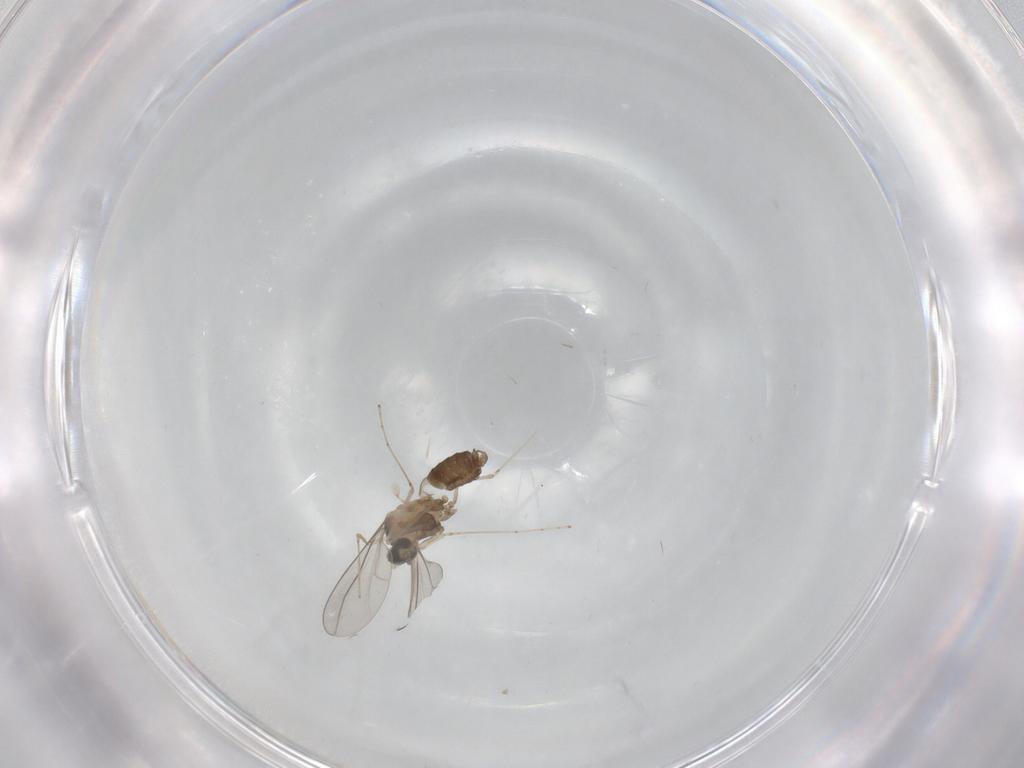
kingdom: Animalia
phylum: Arthropoda
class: Insecta
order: Diptera
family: Cecidomyiidae
